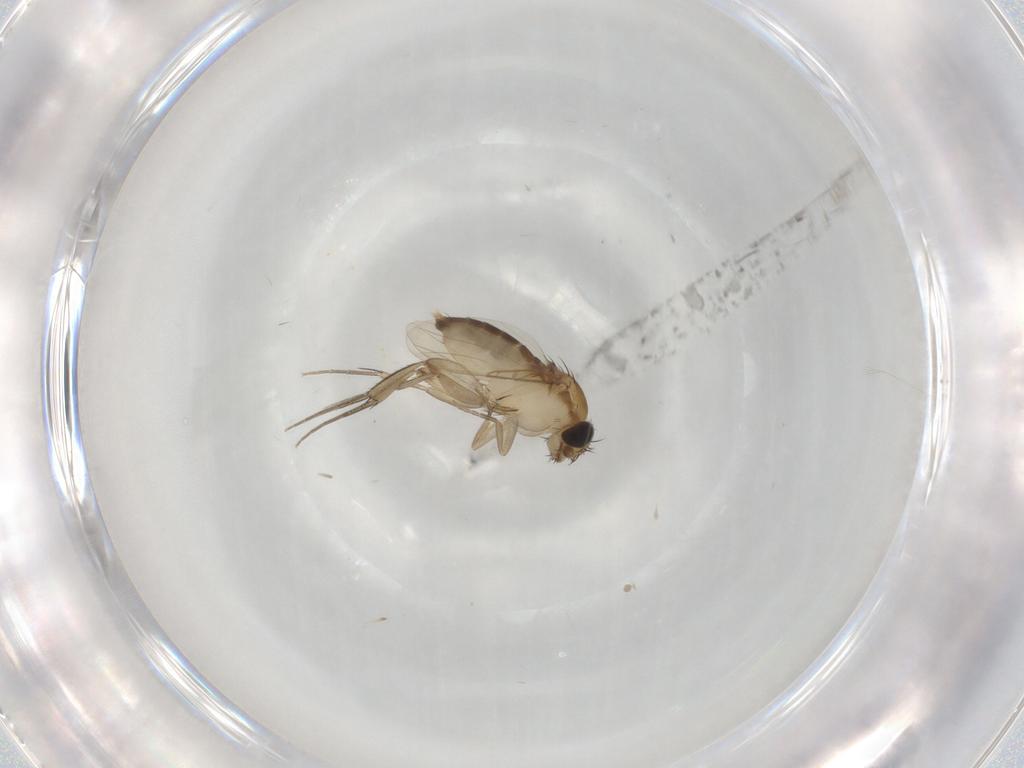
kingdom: Animalia
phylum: Arthropoda
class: Insecta
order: Diptera
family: Phoridae
